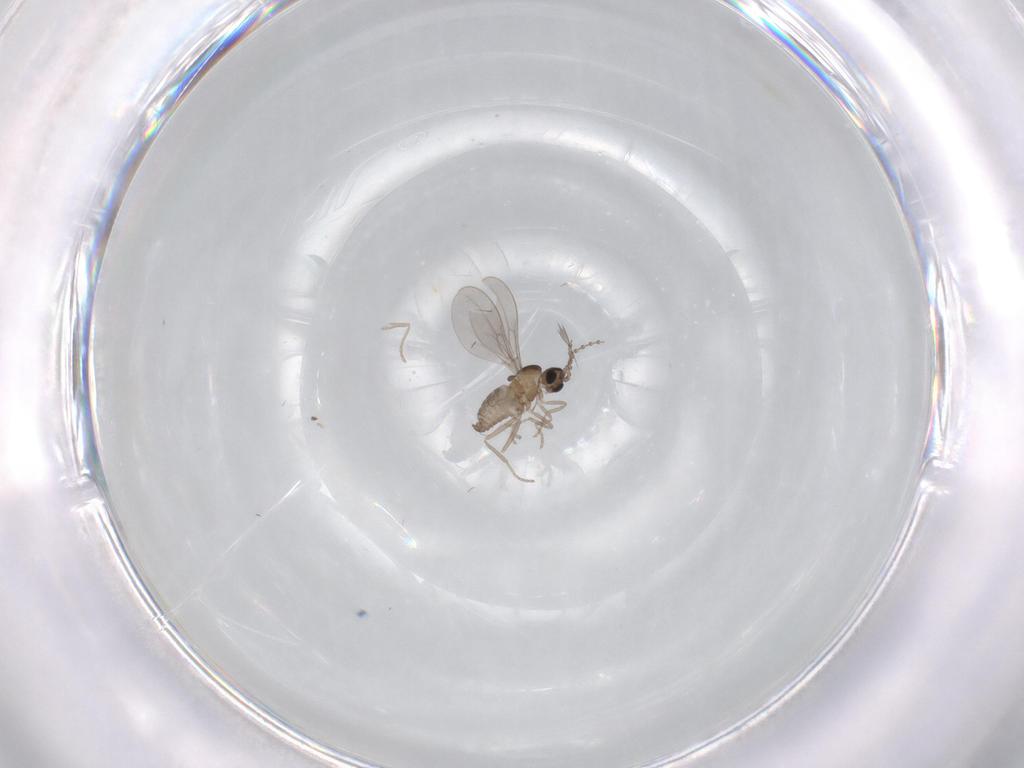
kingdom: Animalia
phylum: Arthropoda
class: Insecta
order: Diptera
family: Cecidomyiidae
